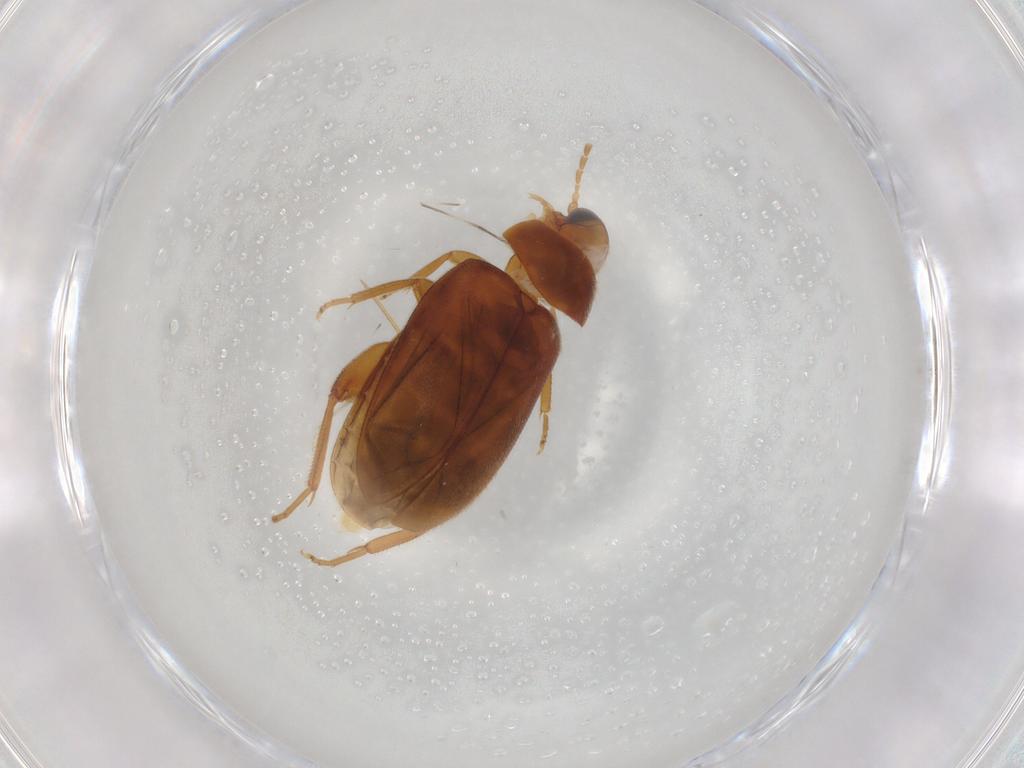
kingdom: Animalia
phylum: Arthropoda
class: Insecta
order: Coleoptera
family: Scirtidae
